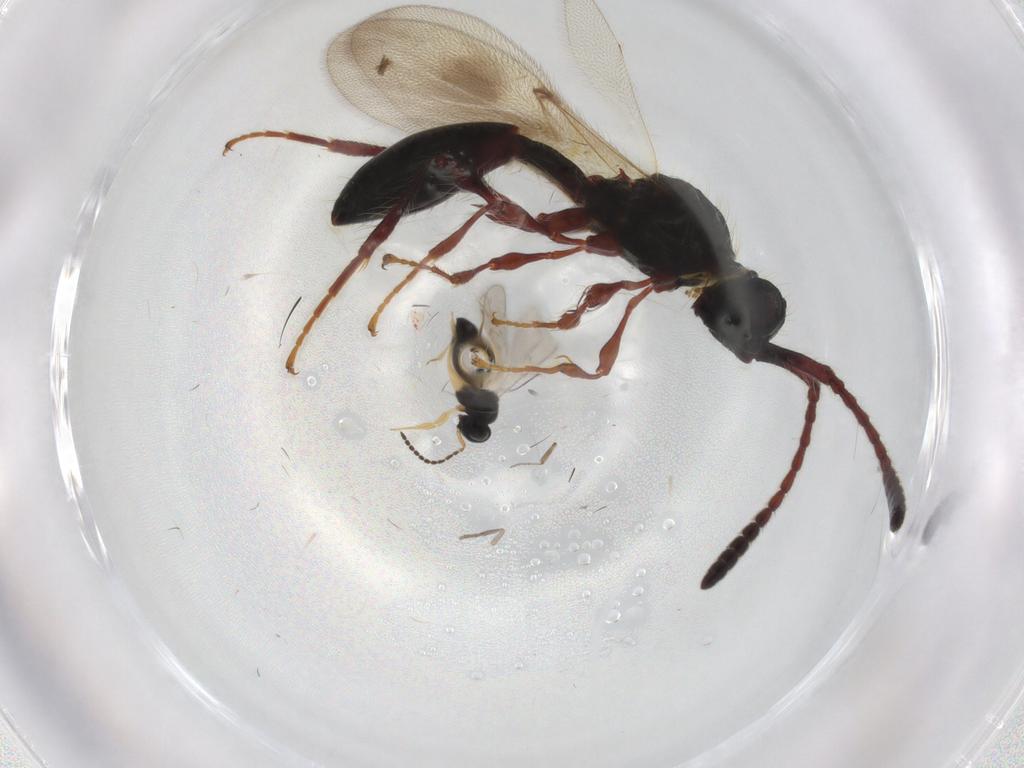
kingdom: Animalia
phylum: Arthropoda
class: Insecta
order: Hymenoptera
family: Scelionidae
